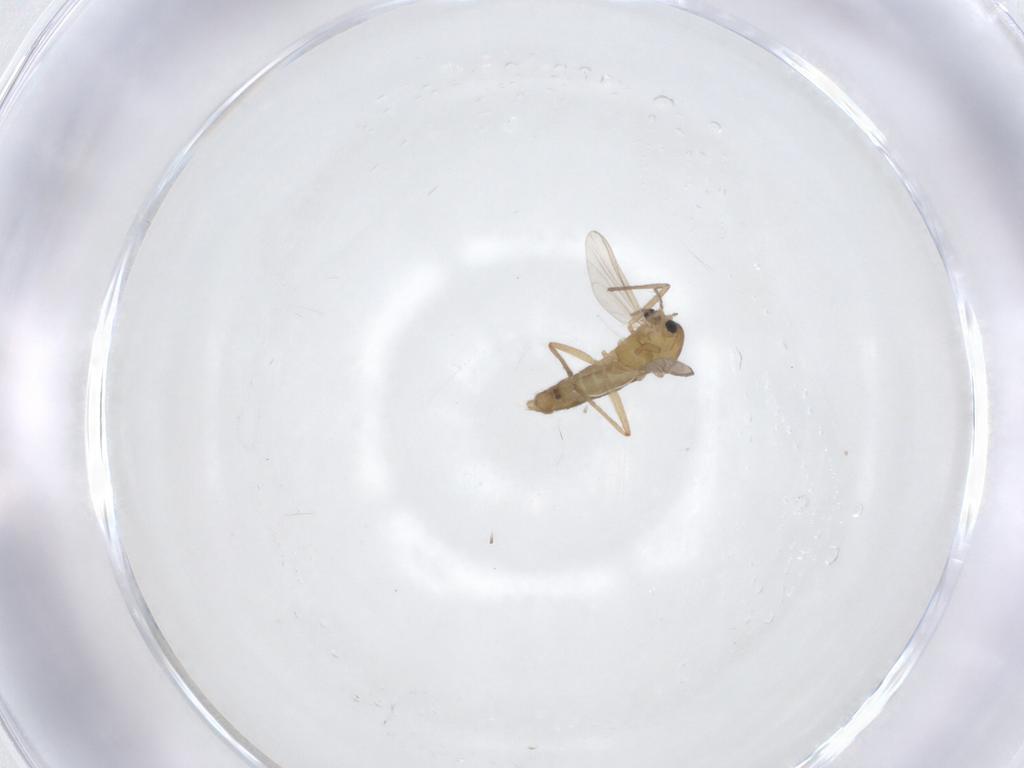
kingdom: Animalia
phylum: Arthropoda
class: Insecta
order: Diptera
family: Chironomidae
